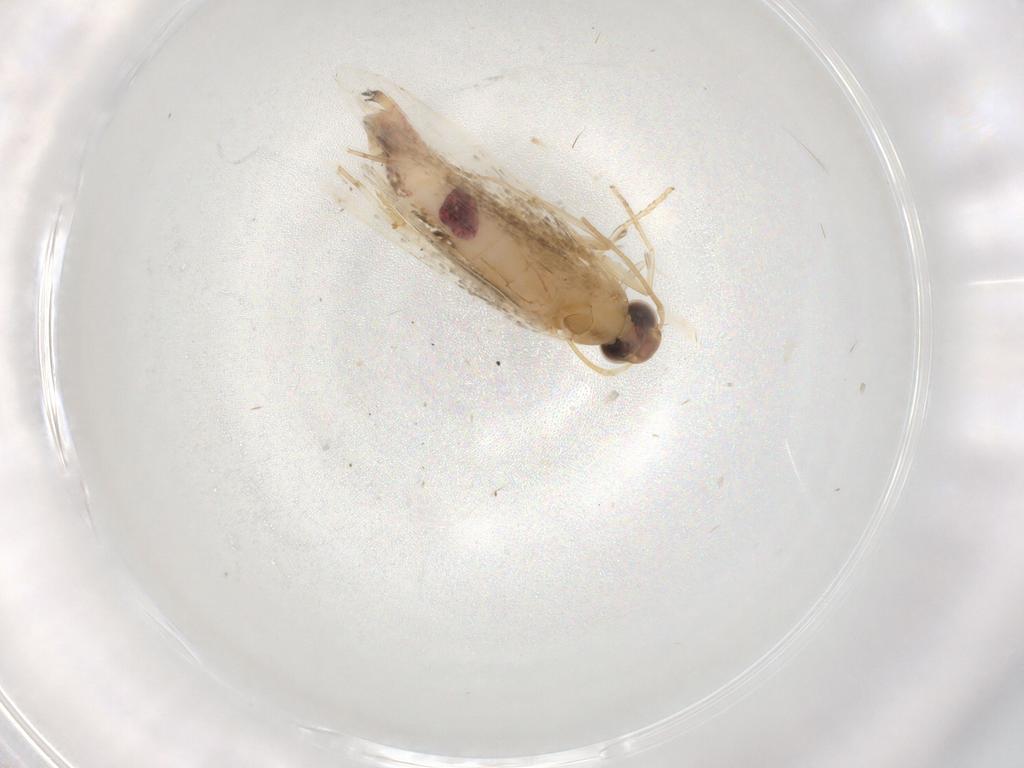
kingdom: Animalia
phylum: Arthropoda
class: Insecta
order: Lepidoptera
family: Gelechiidae
